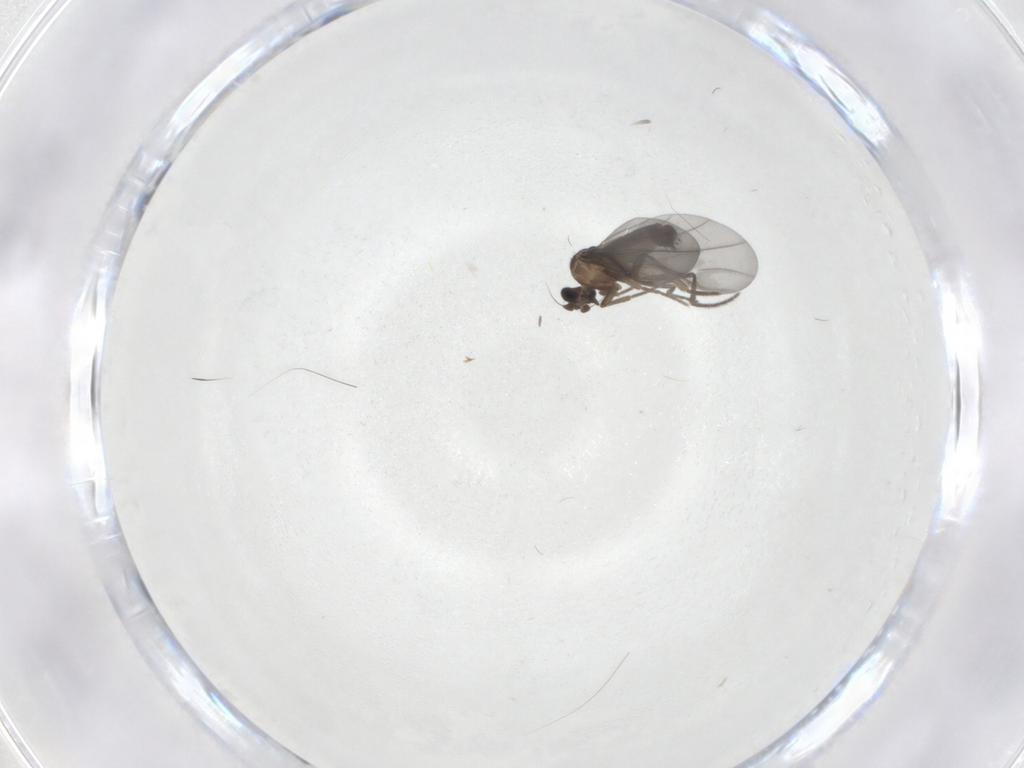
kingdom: Animalia
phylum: Arthropoda
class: Insecta
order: Diptera
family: Phoridae
